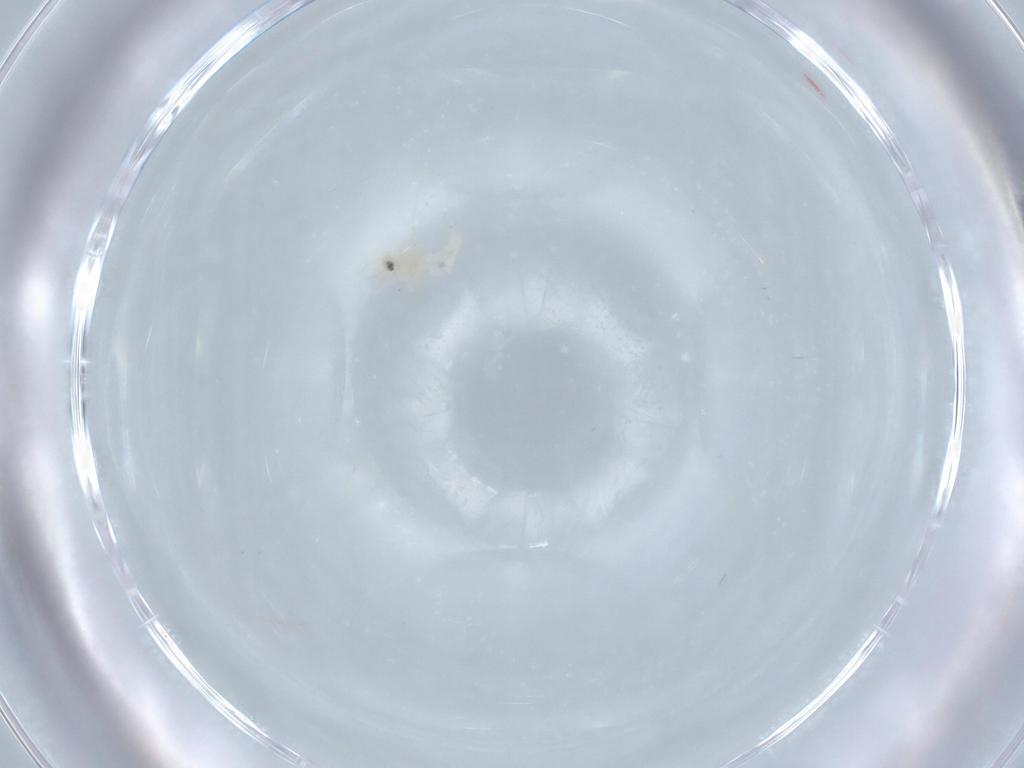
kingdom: Animalia
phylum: Arthropoda
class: Insecta
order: Hemiptera
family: Aleyrodidae
